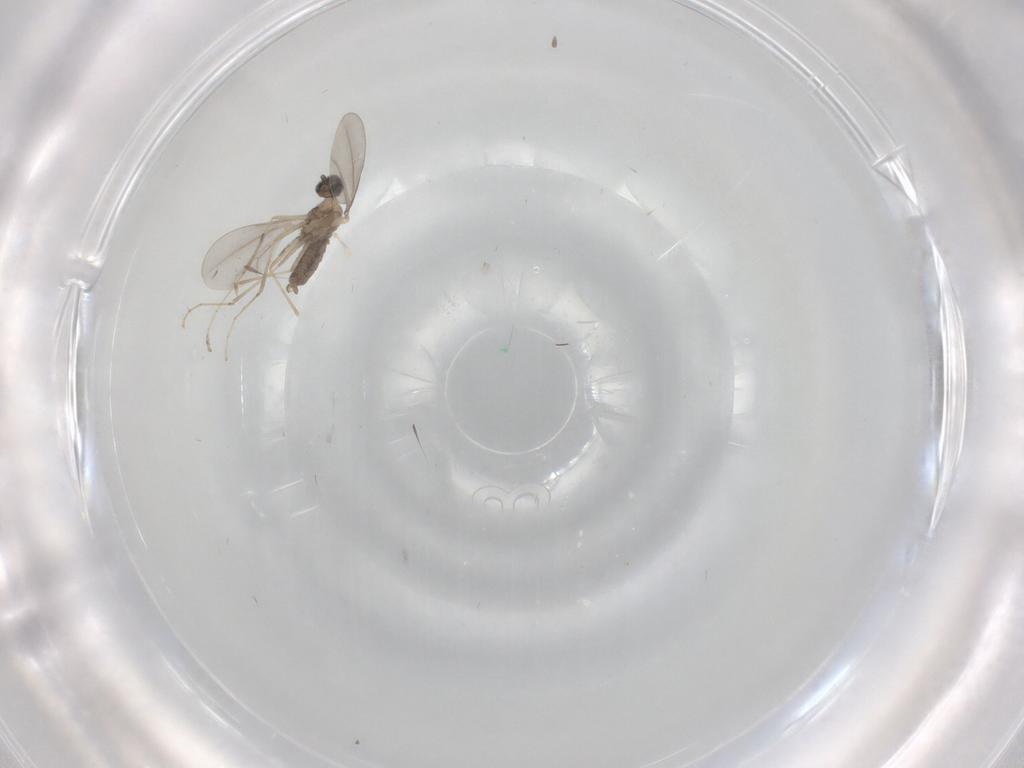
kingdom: Animalia
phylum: Arthropoda
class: Insecta
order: Diptera
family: Cecidomyiidae
